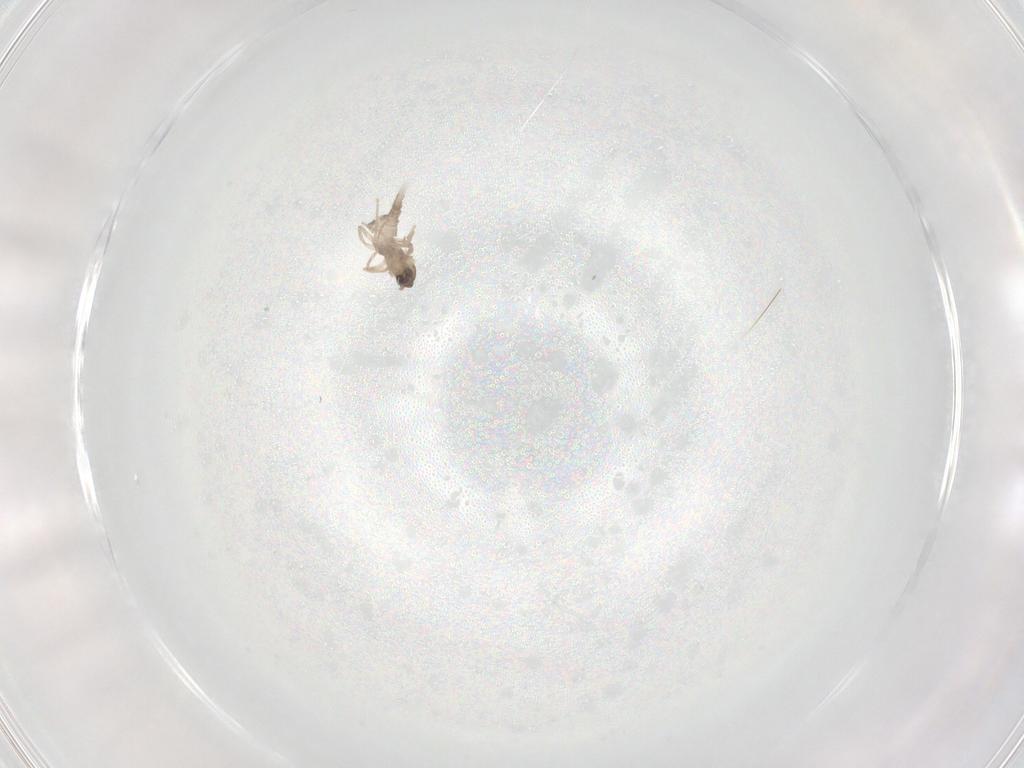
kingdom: Animalia
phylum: Arthropoda
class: Insecta
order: Diptera
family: Cecidomyiidae
